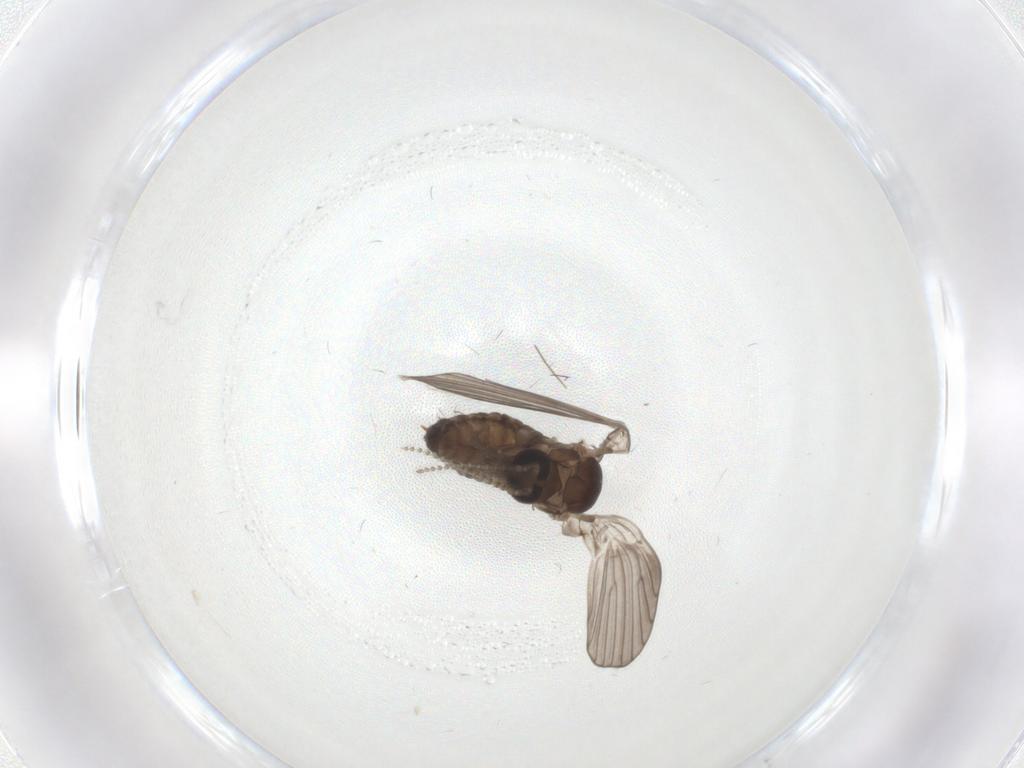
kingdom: Animalia
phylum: Arthropoda
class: Insecta
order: Diptera
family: Psychodidae
